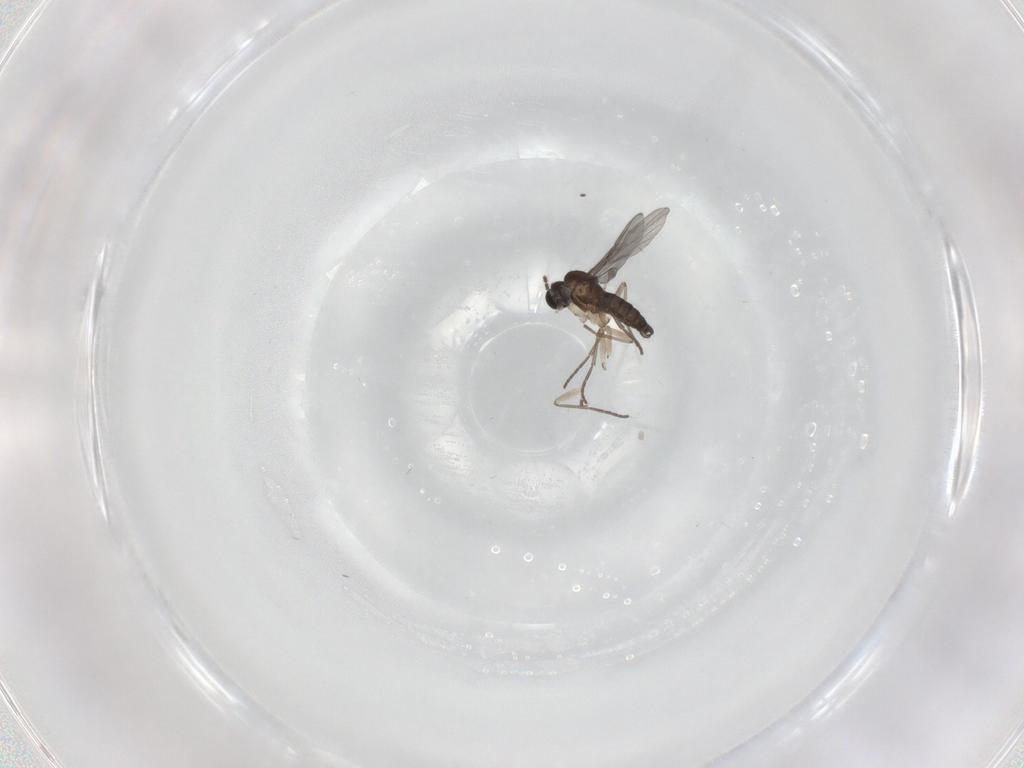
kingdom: Animalia
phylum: Arthropoda
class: Insecta
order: Diptera
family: Sciaridae
